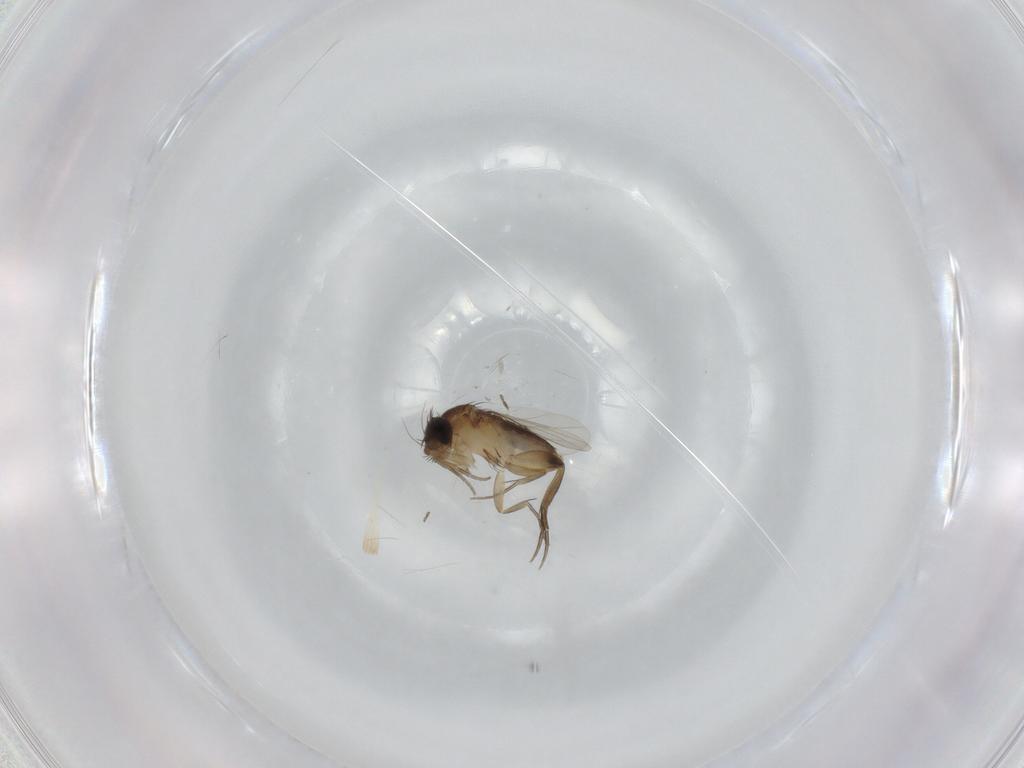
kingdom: Animalia
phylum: Arthropoda
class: Insecta
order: Diptera
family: Phoridae
